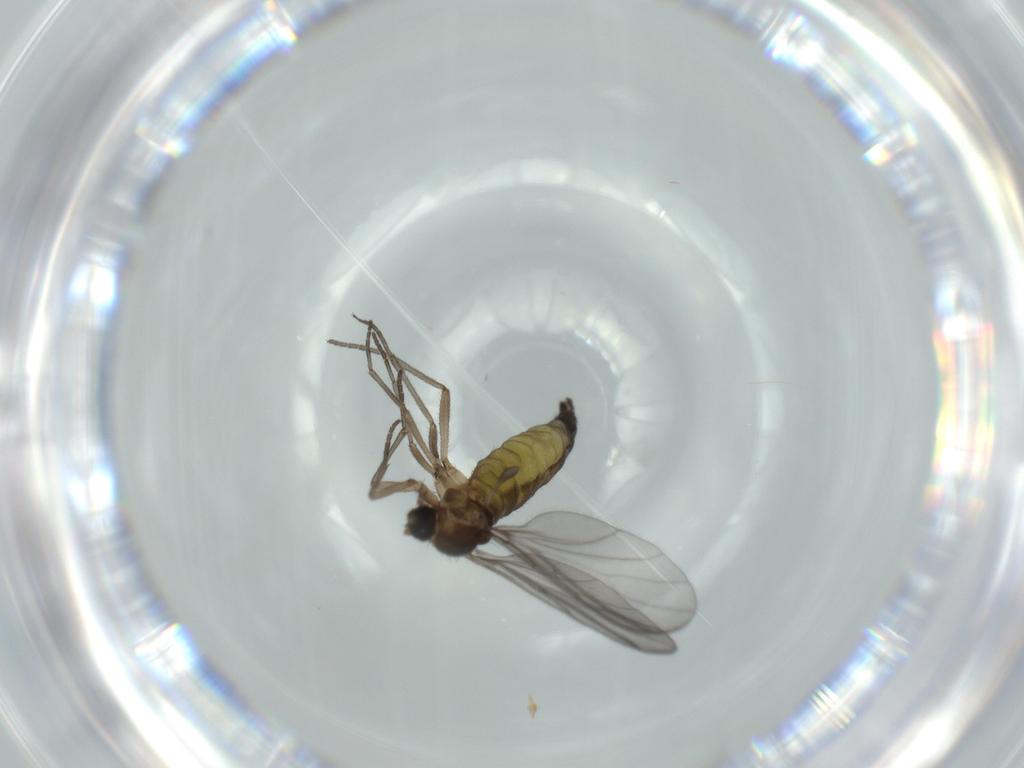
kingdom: Animalia
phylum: Arthropoda
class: Insecta
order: Diptera
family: Sciaridae
